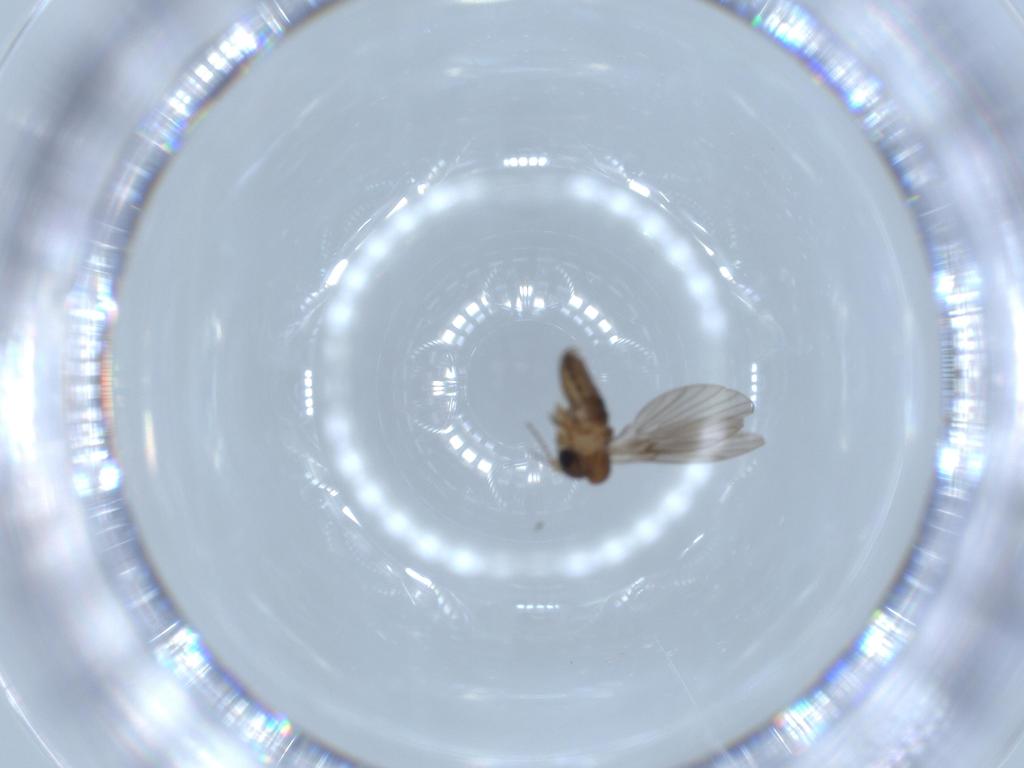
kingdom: Animalia
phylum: Arthropoda
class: Insecta
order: Diptera
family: Psychodidae
